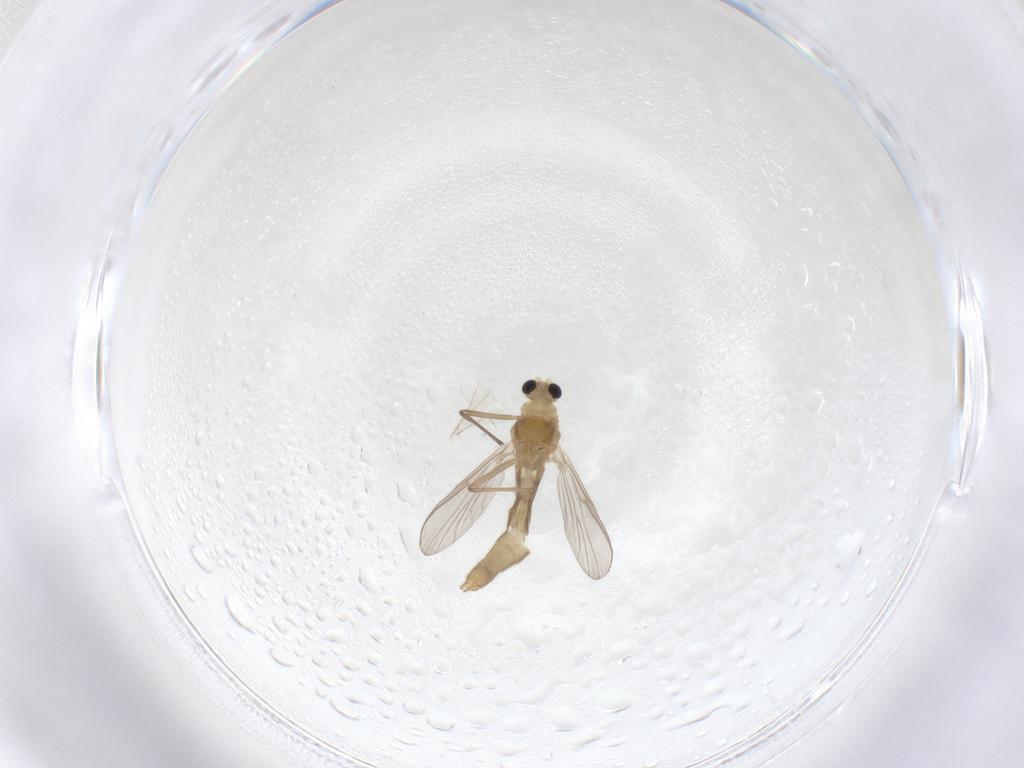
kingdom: Animalia
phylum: Arthropoda
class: Insecta
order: Diptera
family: Chironomidae
